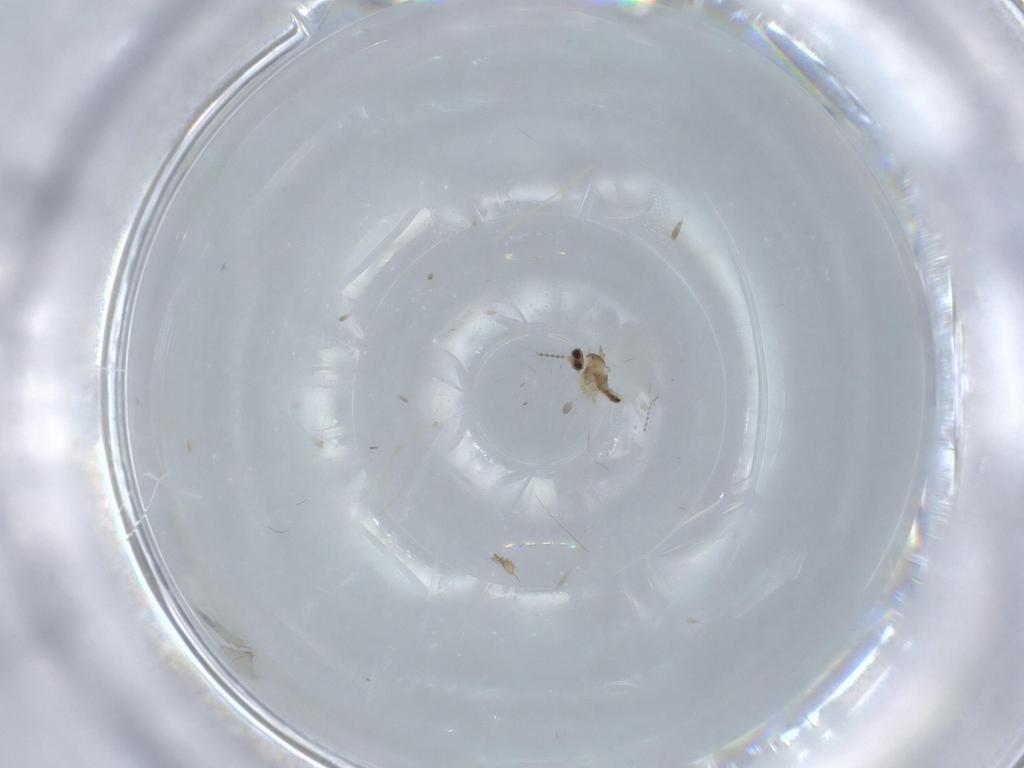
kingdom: Animalia
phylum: Arthropoda
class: Insecta
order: Diptera
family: Cecidomyiidae
